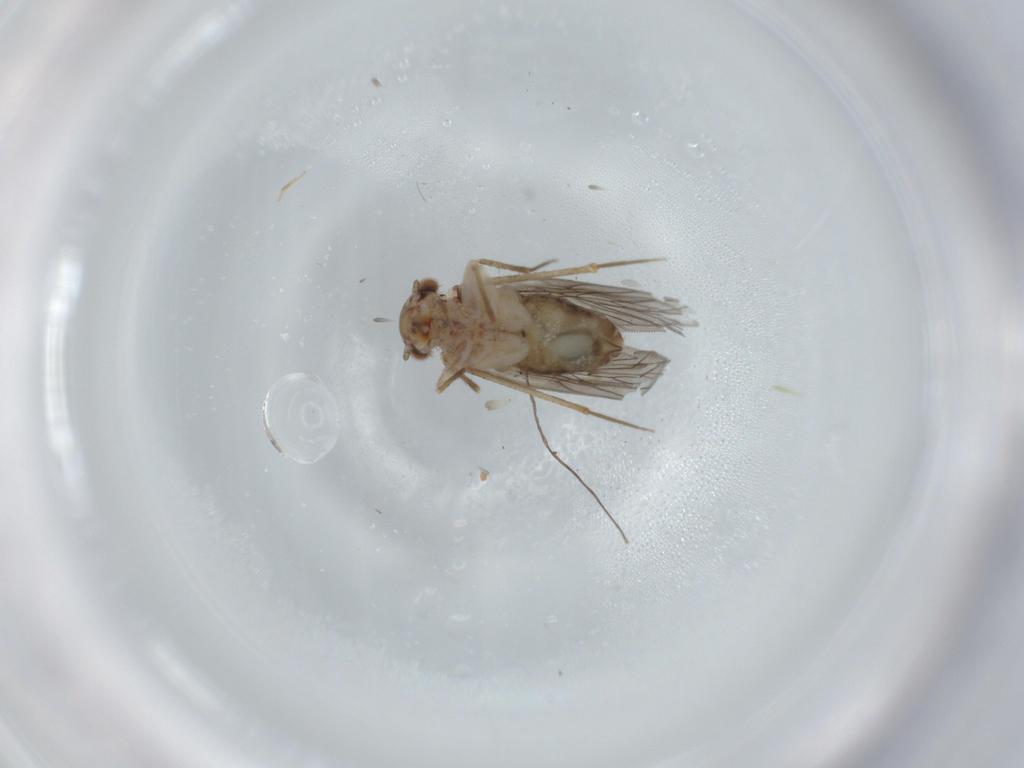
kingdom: Animalia
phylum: Arthropoda
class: Insecta
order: Psocodea
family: Lepidopsocidae
